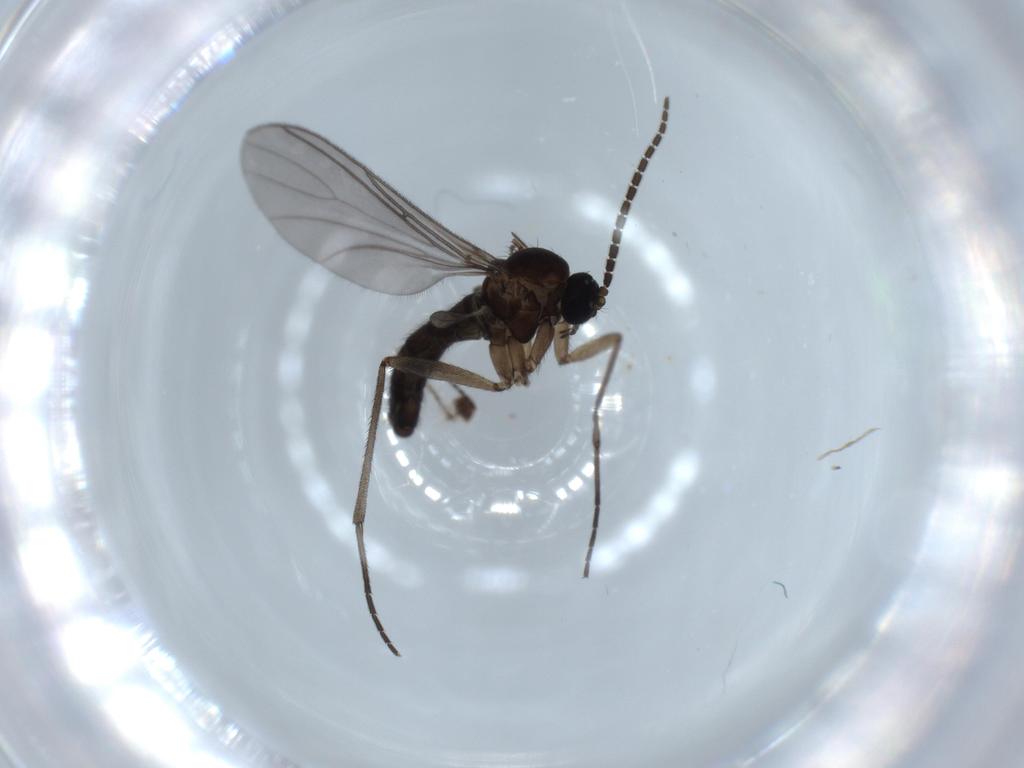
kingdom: Animalia
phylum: Arthropoda
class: Insecta
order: Diptera
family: Sciaridae
